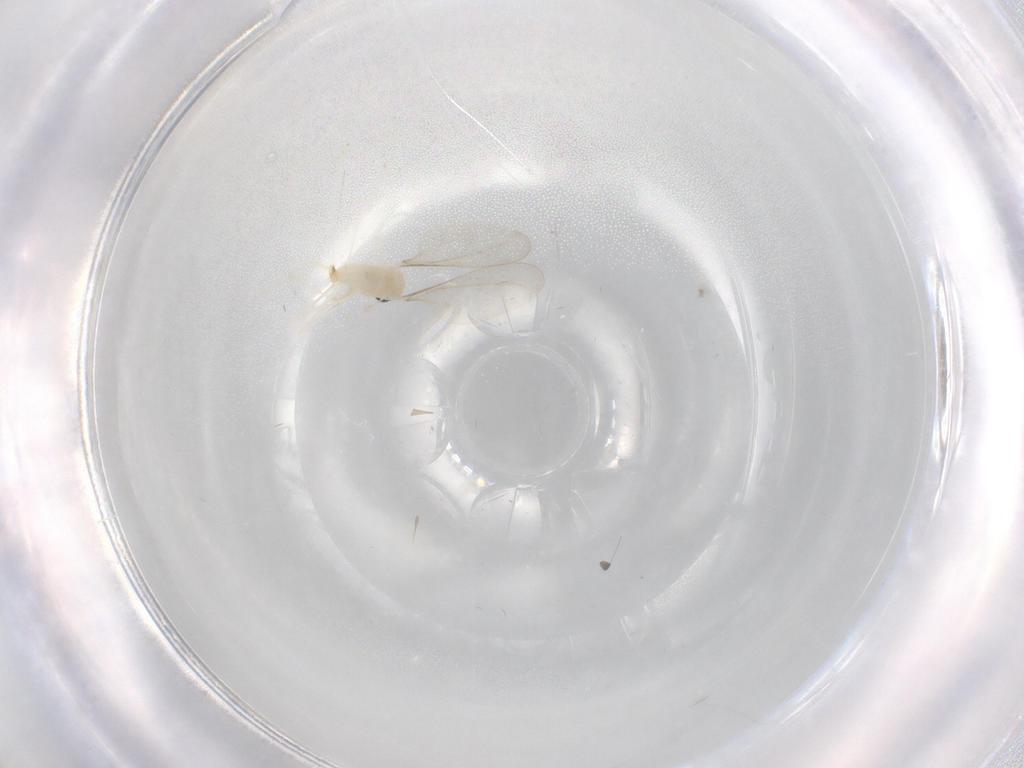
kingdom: Animalia
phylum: Arthropoda
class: Insecta
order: Diptera
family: Cecidomyiidae
